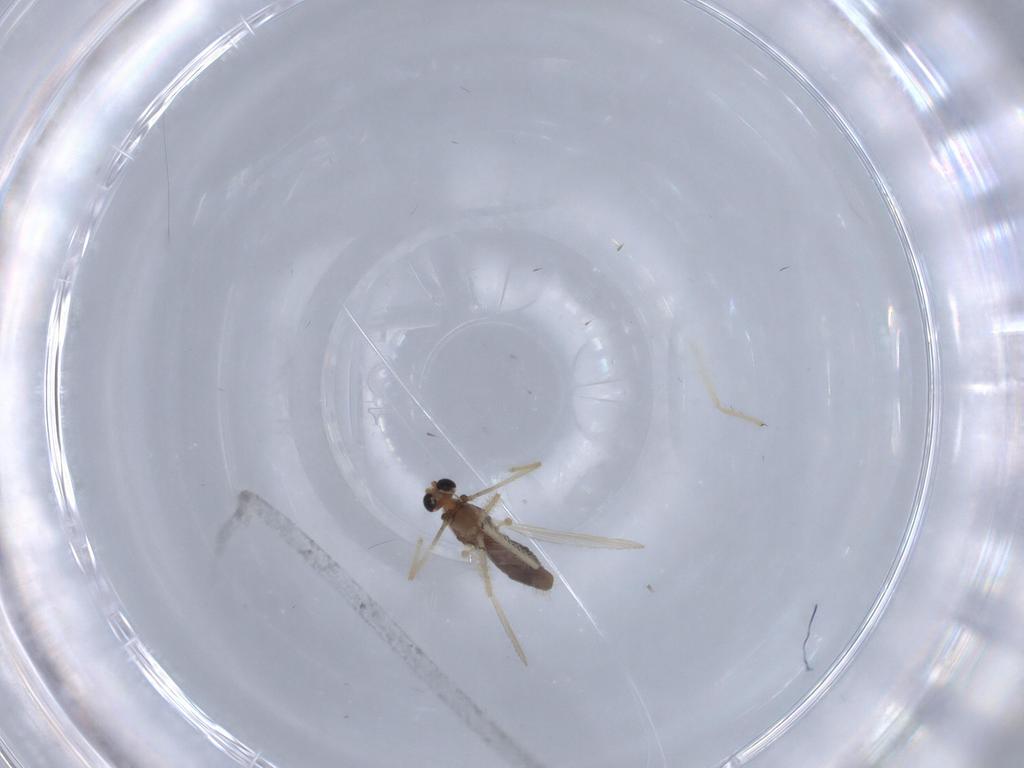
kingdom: Animalia
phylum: Arthropoda
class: Insecta
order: Diptera
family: Chironomidae
